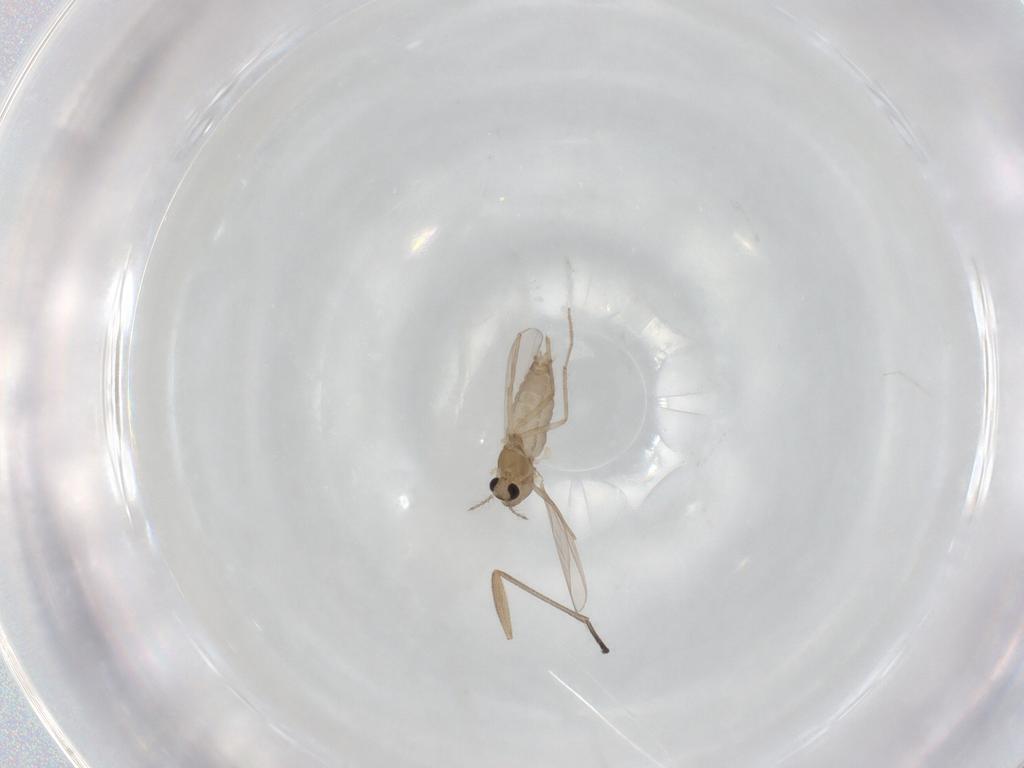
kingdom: Animalia
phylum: Arthropoda
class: Insecta
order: Diptera
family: Chironomidae
